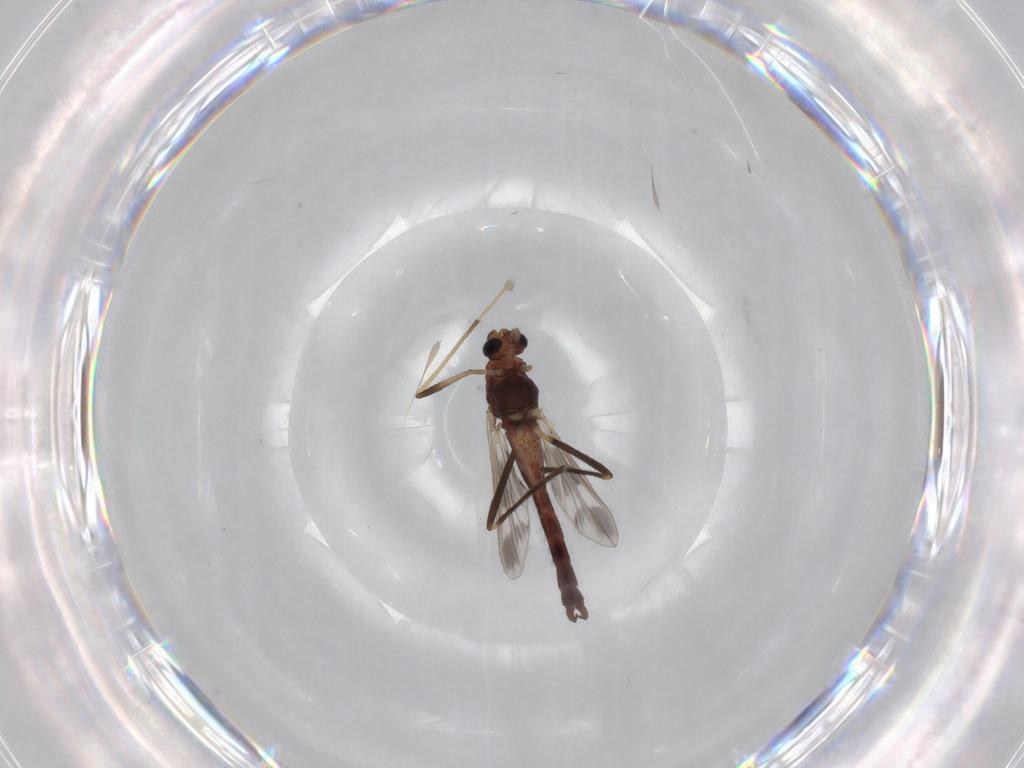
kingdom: Animalia
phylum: Arthropoda
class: Insecta
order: Diptera
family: Chironomidae
